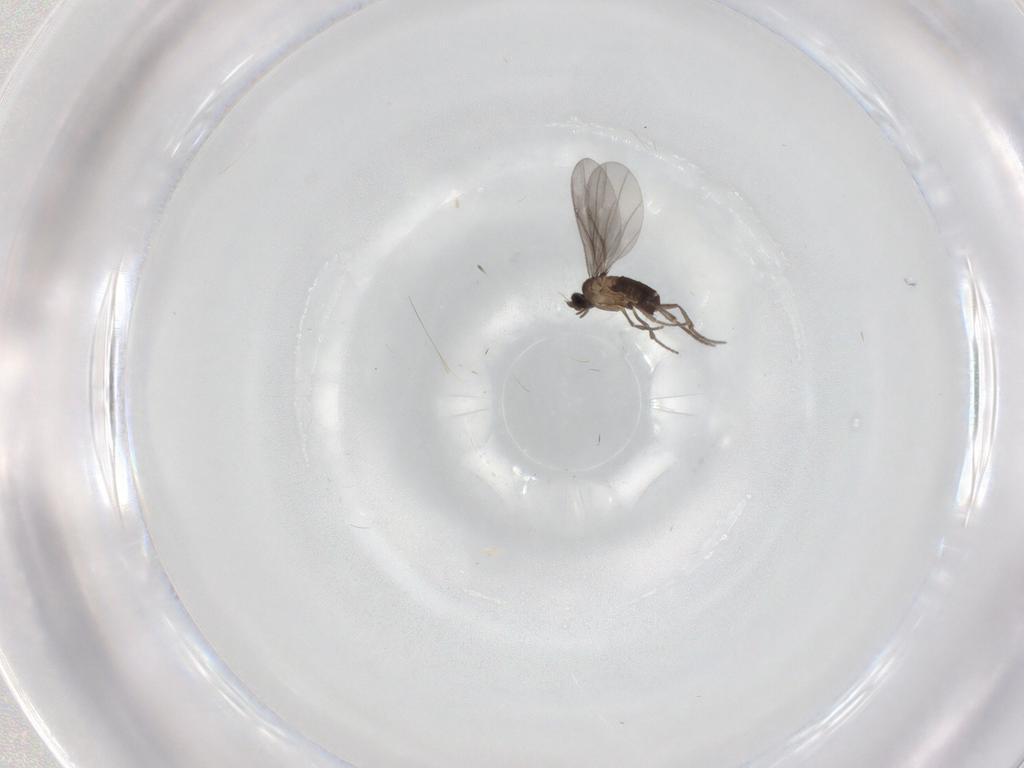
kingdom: Animalia
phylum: Arthropoda
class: Insecta
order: Diptera
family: Phoridae
